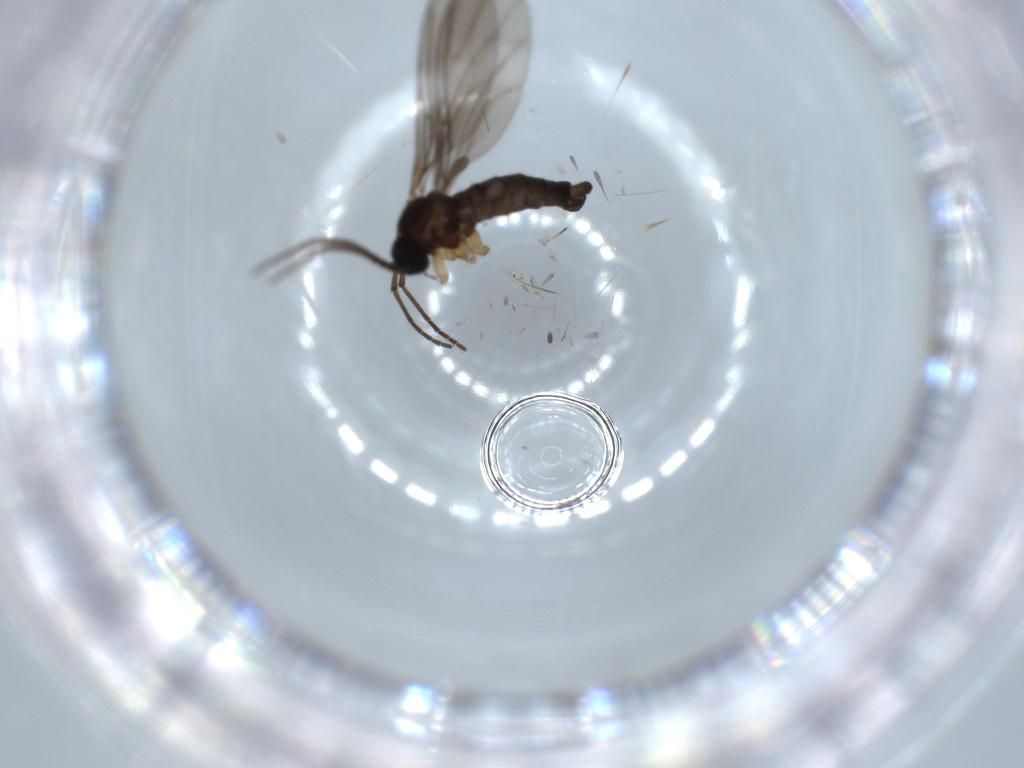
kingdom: Animalia
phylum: Arthropoda
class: Insecta
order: Diptera
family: Sciaridae
